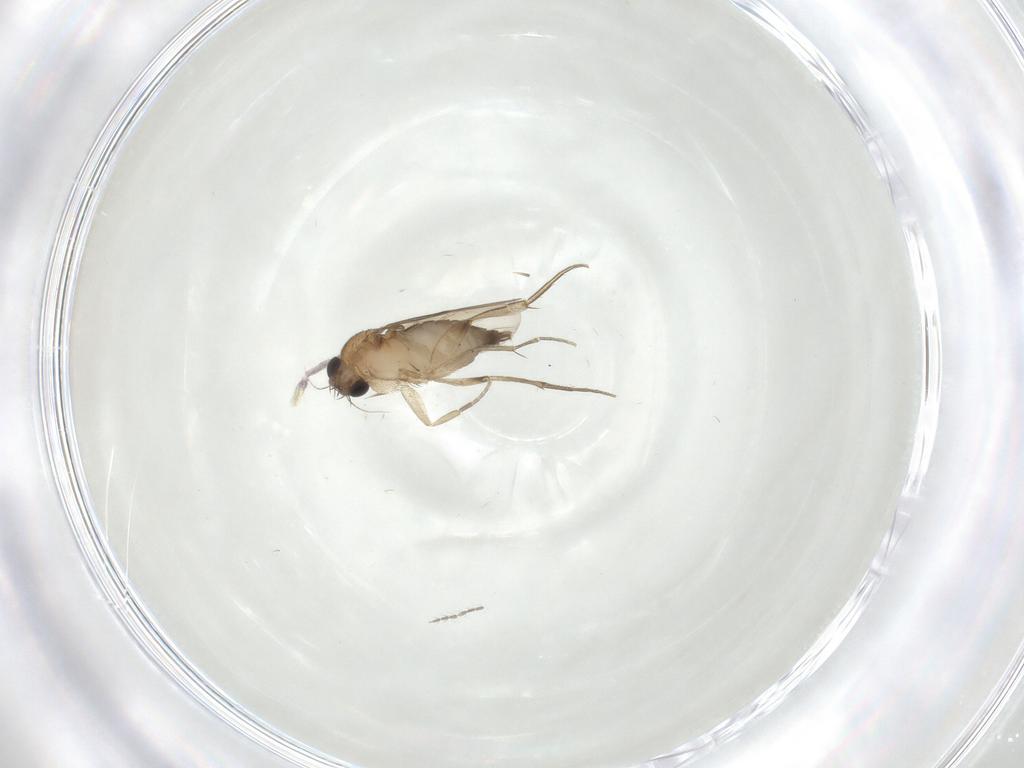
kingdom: Animalia
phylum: Arthropoda
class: Insecta
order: Diptera
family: Phoridae
